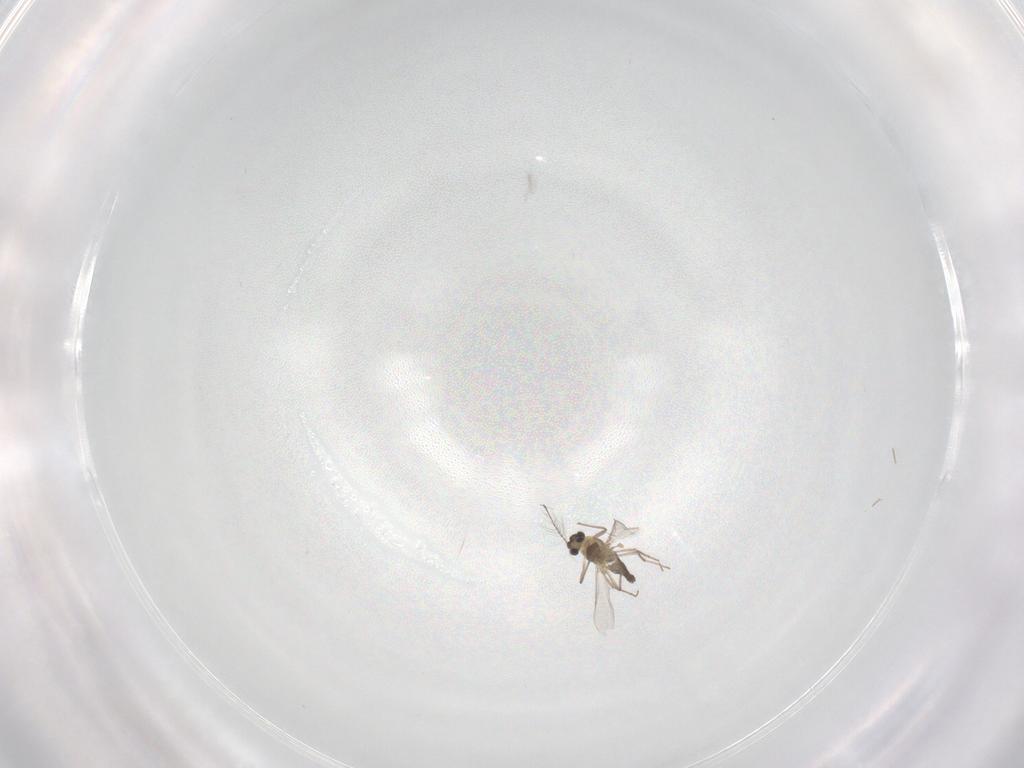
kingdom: Animalia
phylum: Arthropoda
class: Insecta
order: Diptera
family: Chironomidae
